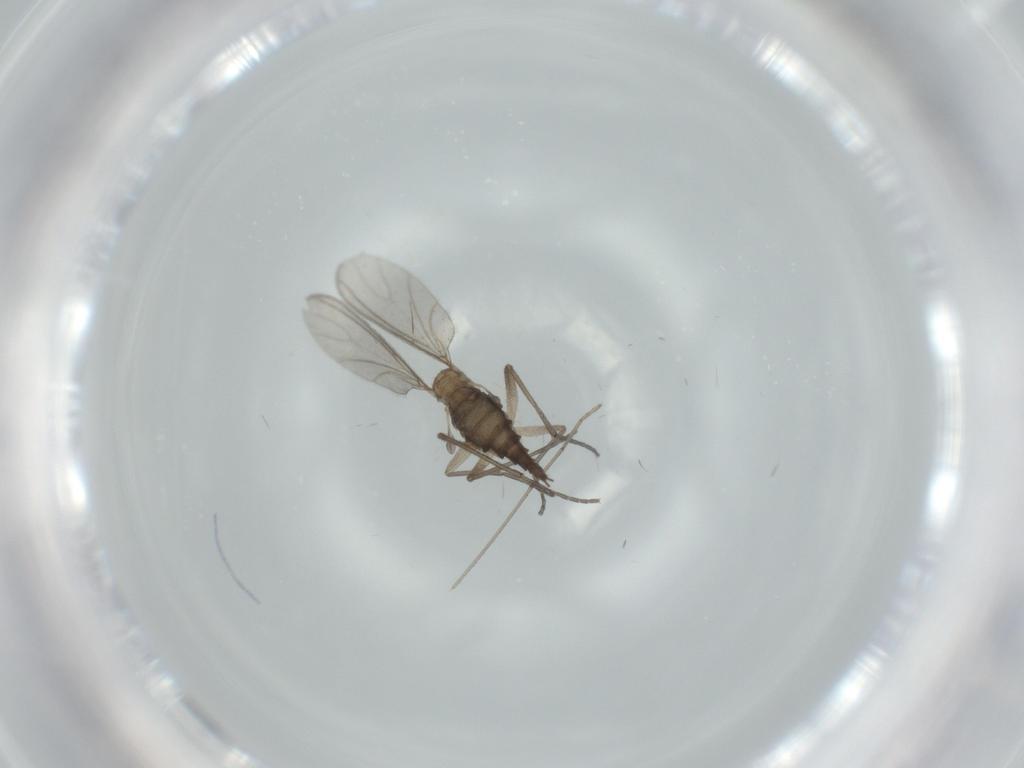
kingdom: Animalia
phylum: Arthropoda
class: Insecta
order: Diptera
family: Sciaridae
